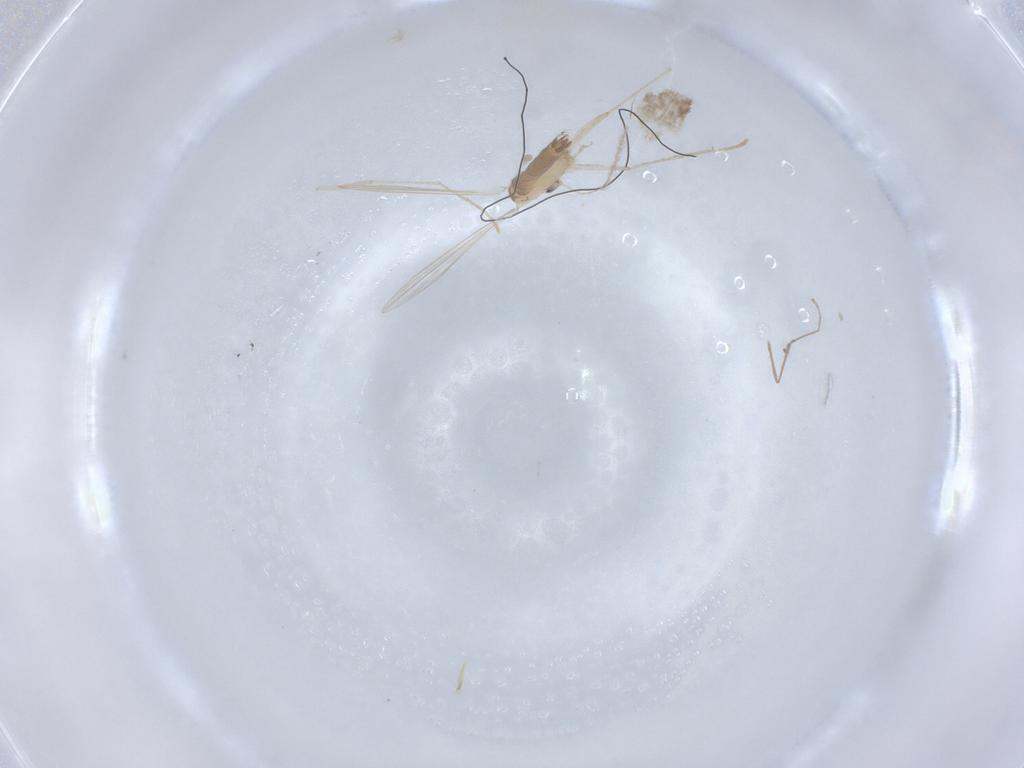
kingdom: Animalia
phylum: Arthropoda
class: Insecta
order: Diptera
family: Psychodidae
